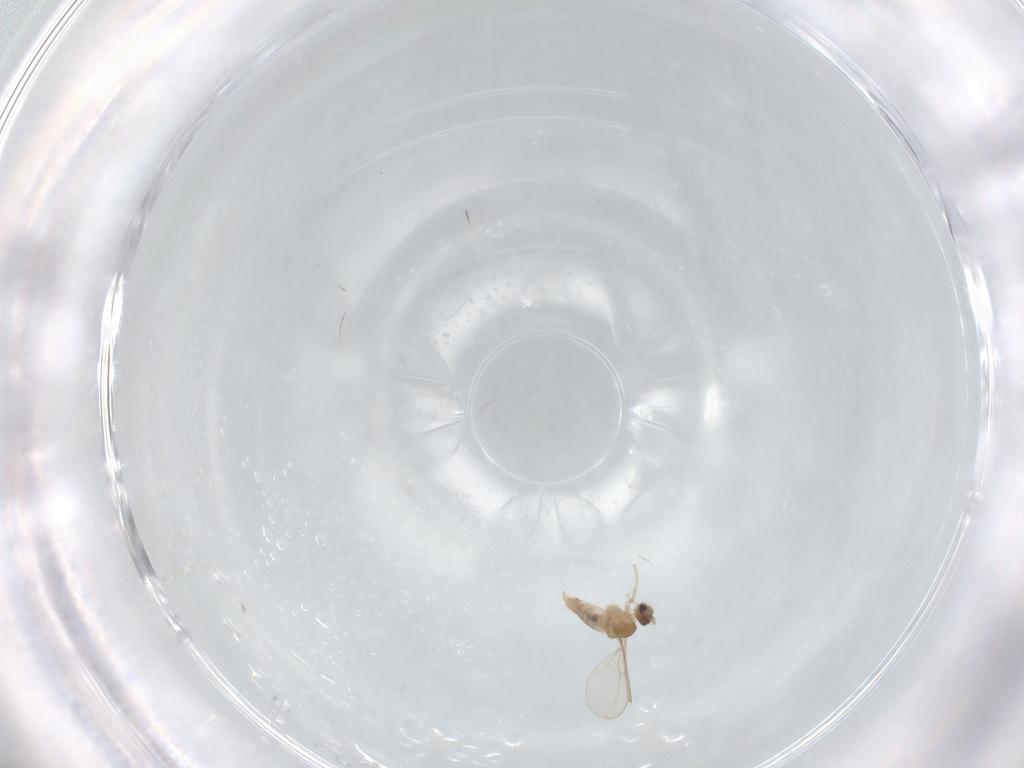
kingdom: Animalia
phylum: Arthropoda
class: Insecta
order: Diptera
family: Cecidomyiidae
